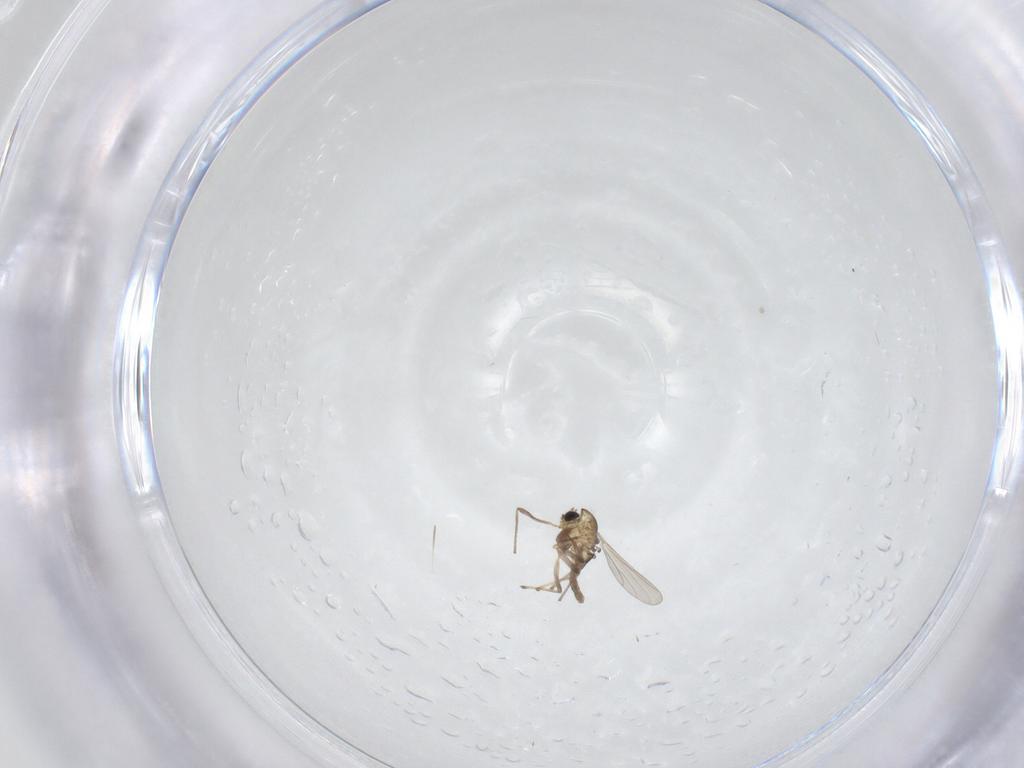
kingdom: Animalia
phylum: Arthropoda
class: Insecta
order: Diptera
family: Chironomidae
